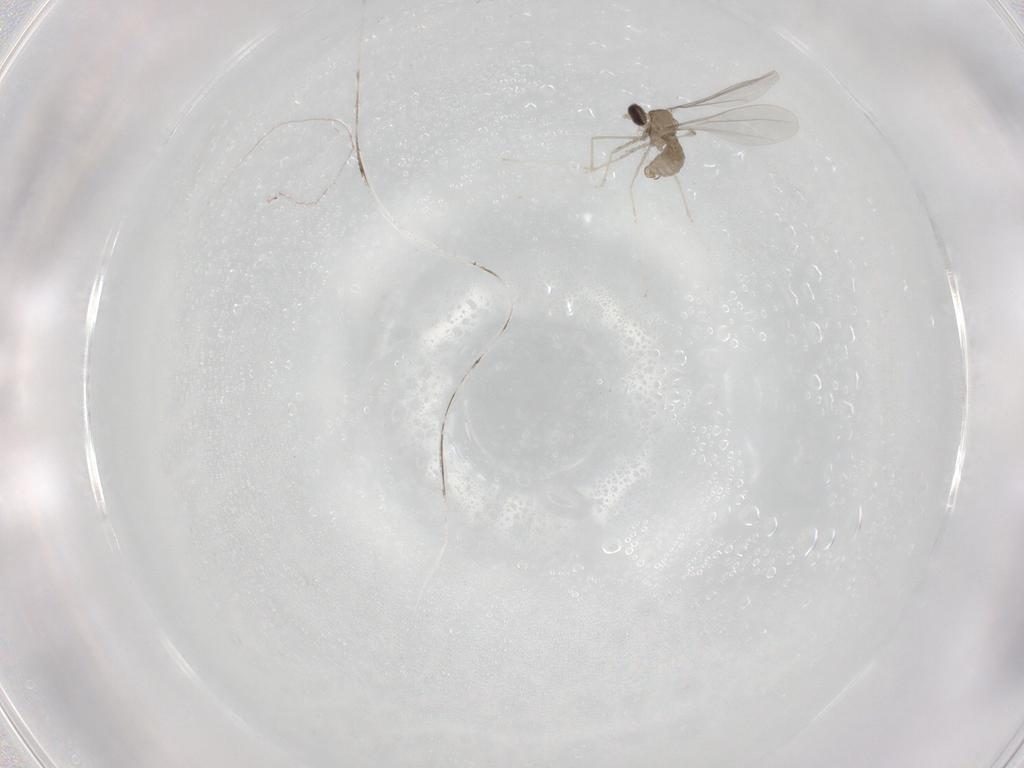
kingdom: Animalia
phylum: Arthropoda
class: Insecta
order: Diptera
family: Cecidomyiidae
